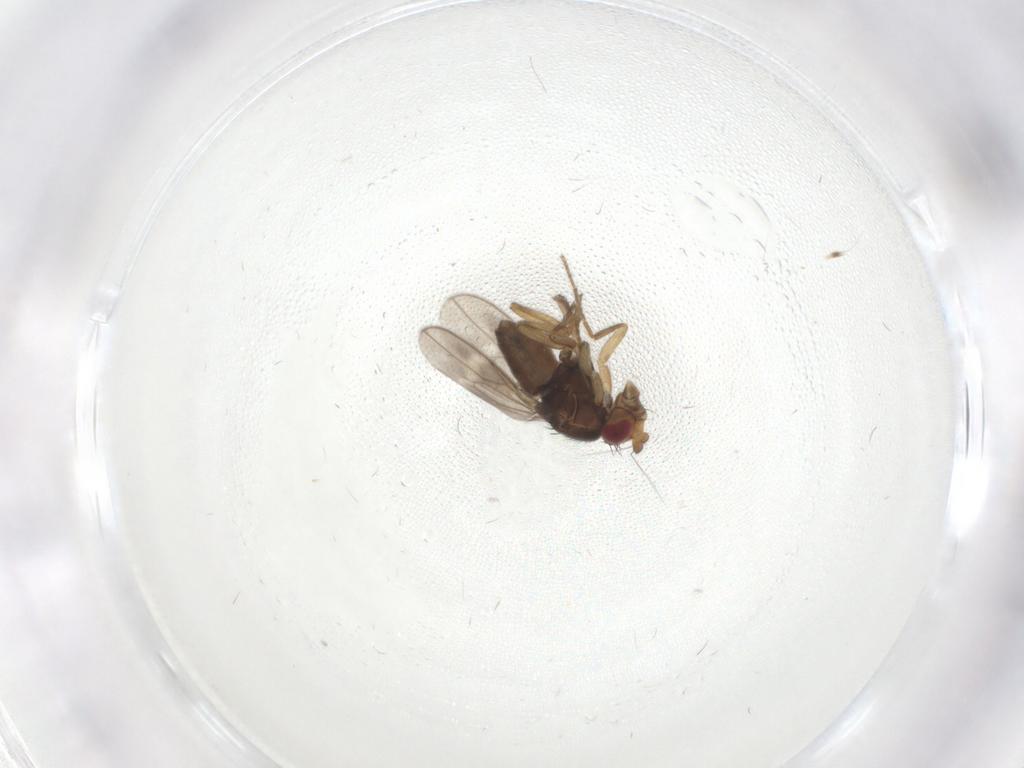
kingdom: Animalia
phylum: Arthropoda
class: Insecta
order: Diptera
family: Sphaeroceridae
